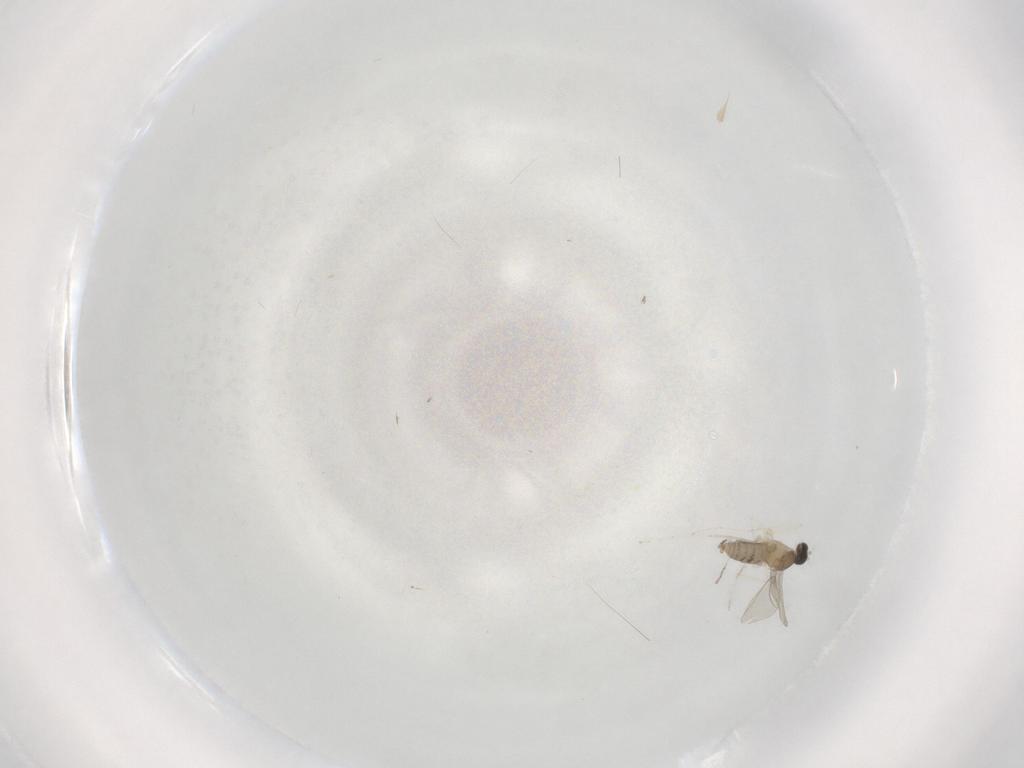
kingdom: Animalia
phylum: Arthropoda
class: Insecta
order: Diptera
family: Cecidomyiidae
